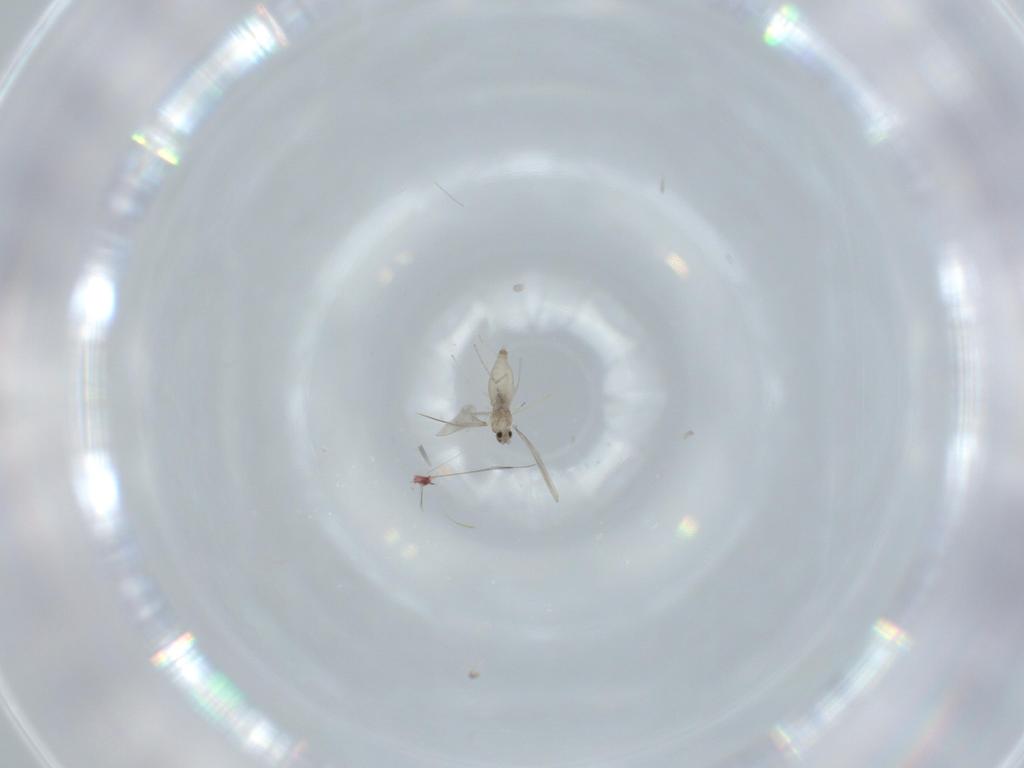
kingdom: Animalia
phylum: Arthropoda
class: Insecta
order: Diptera
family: Cecidomyiidae
